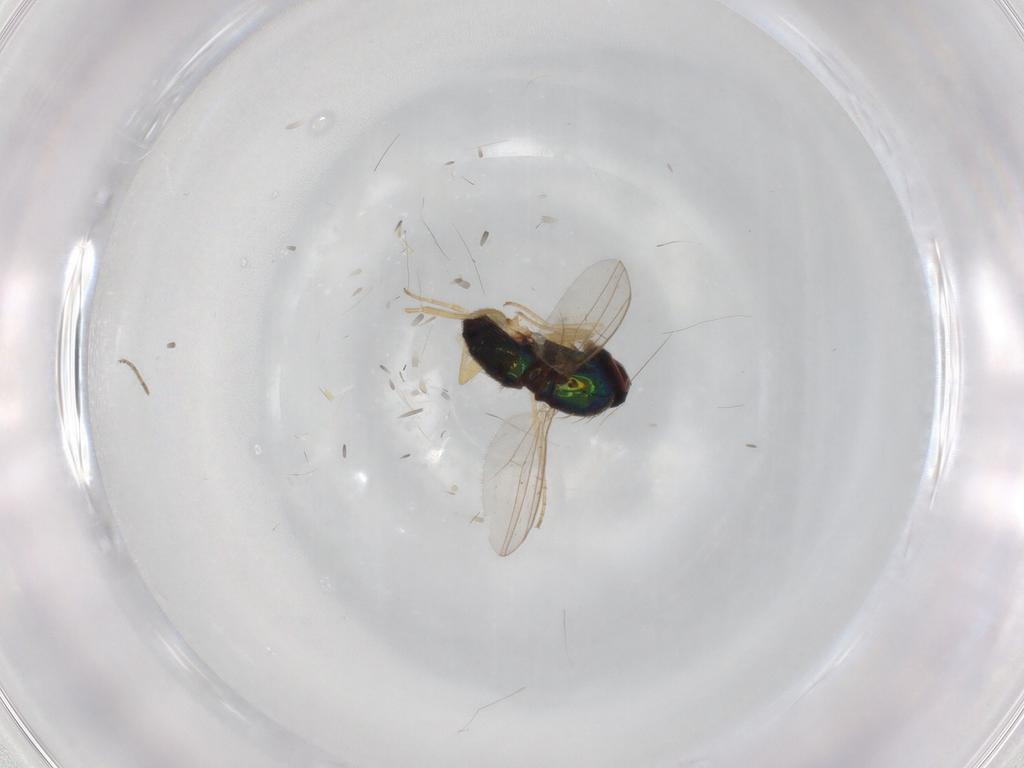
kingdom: Animalia
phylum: Arthropoda
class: Insecta
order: Diptera
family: Dolichopodidae
